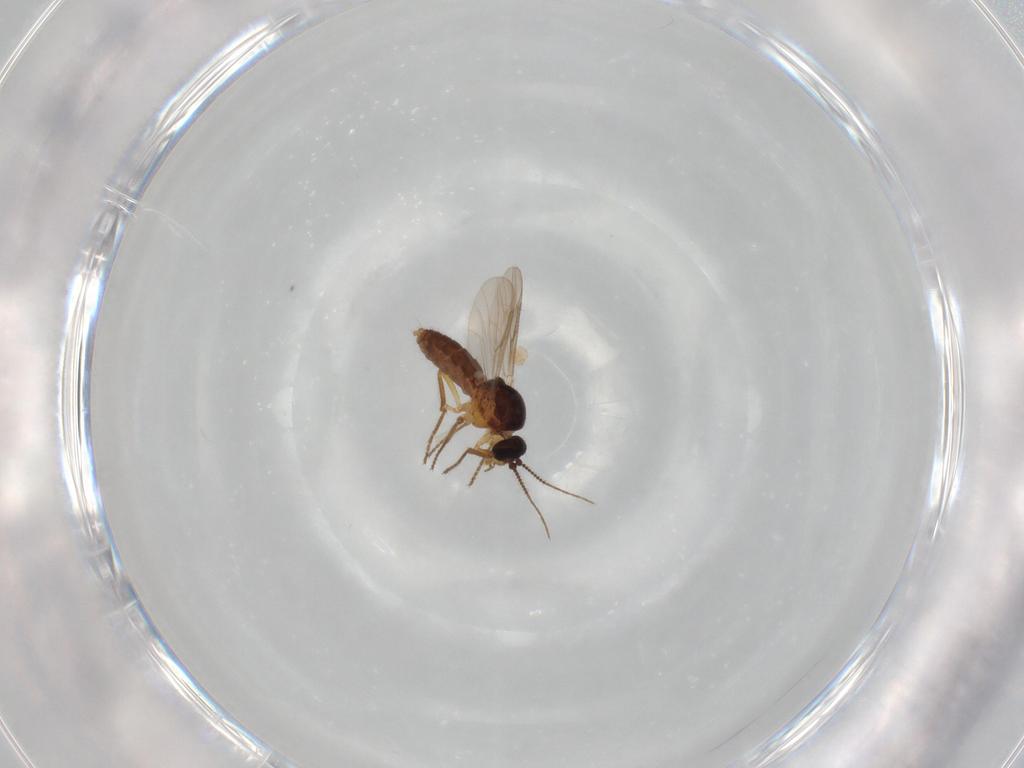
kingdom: Animalia
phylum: Arthropoda
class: Insecta
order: Diptera
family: Ceratopogonidae
